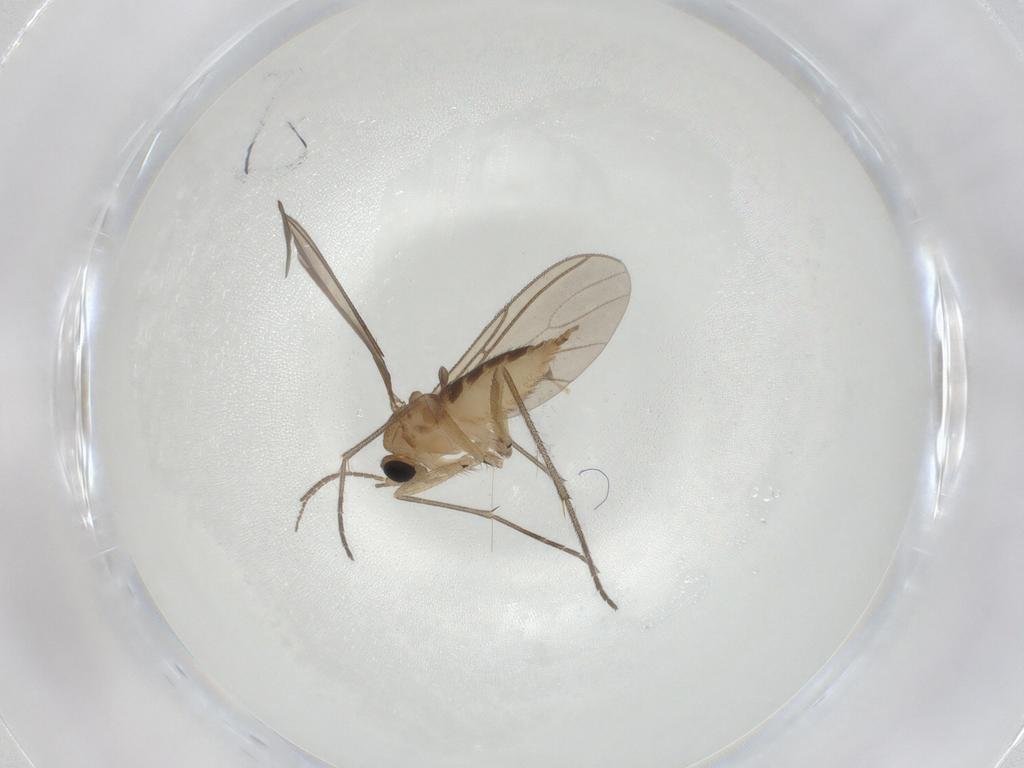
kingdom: Animalia
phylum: Arthropoda
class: Insecta
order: Diptera
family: Sciaridae
